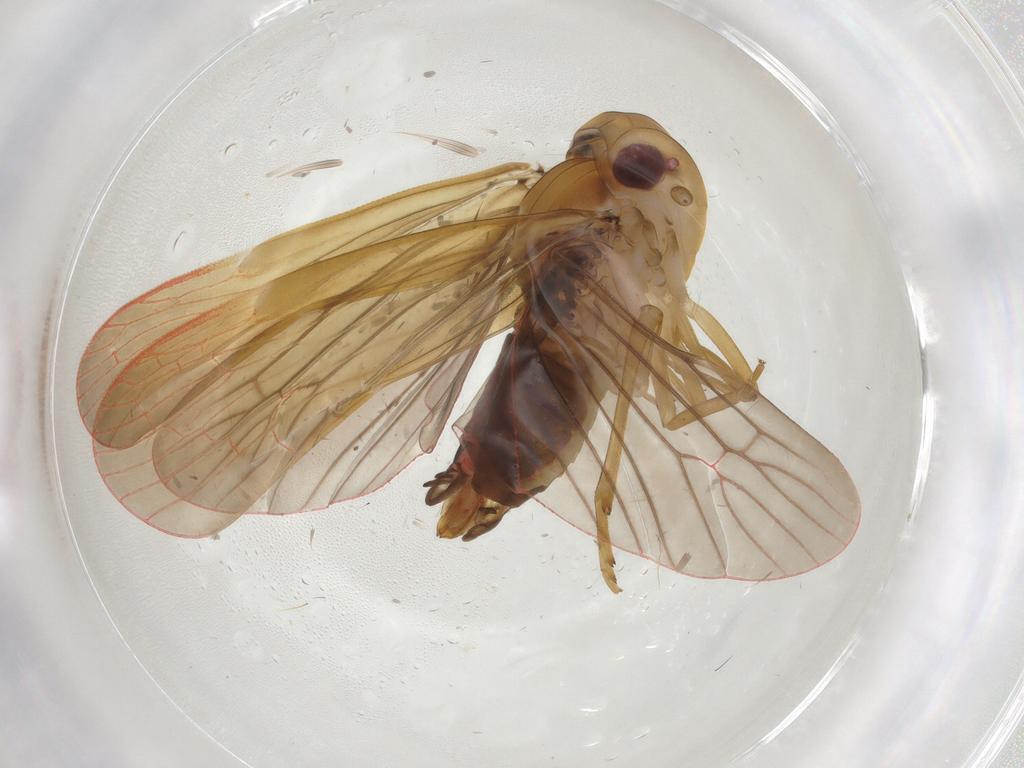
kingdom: Animalia
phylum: Arthropoda
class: Insecta
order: Hemiptera
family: Achilidae
